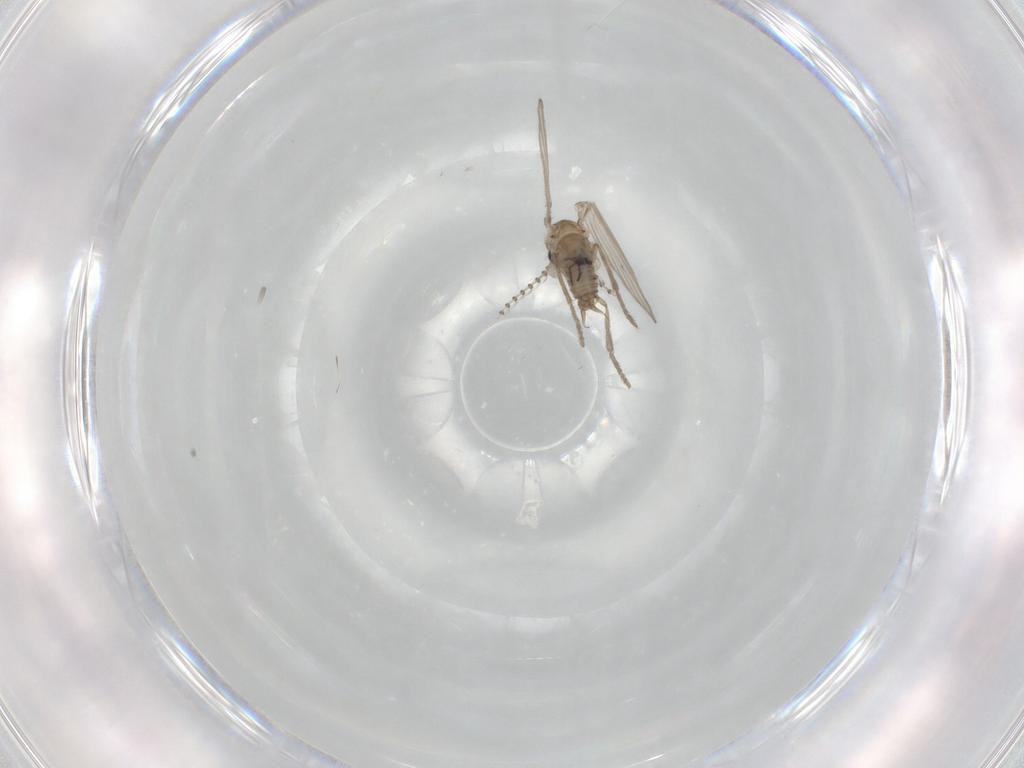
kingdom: Animalia
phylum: Arthropoda
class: Insecta
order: Diptera
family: Psychodidae
